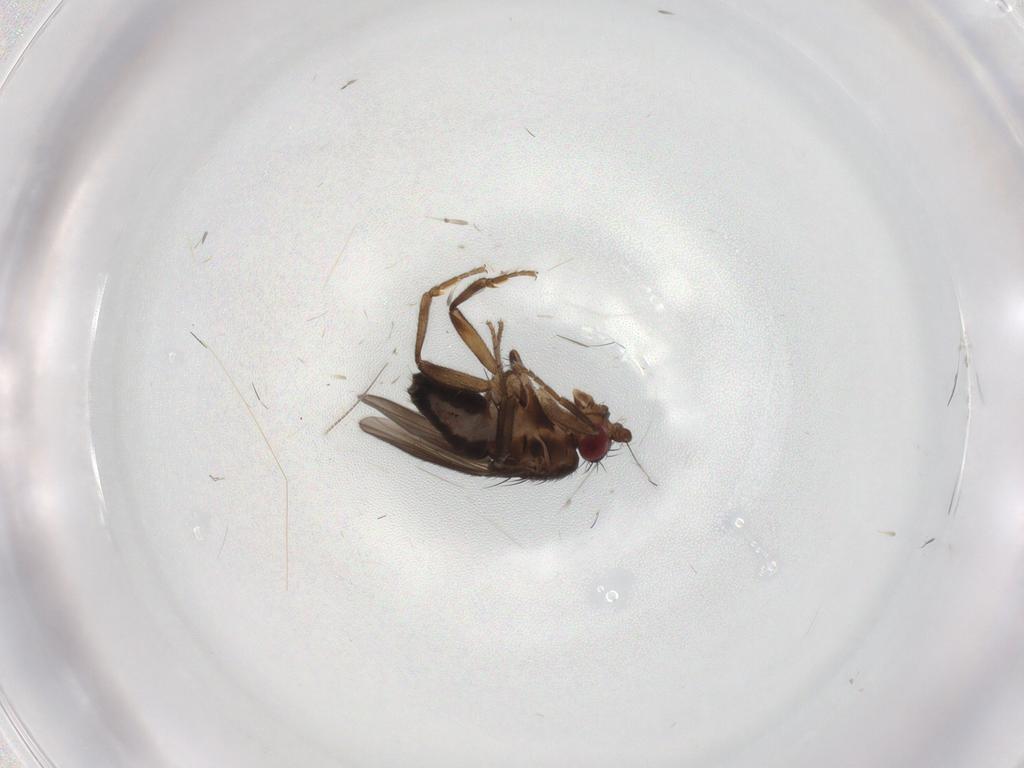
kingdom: Animalia
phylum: Arthropoda
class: Insecta
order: Diptera
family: Sphaeroceridae
